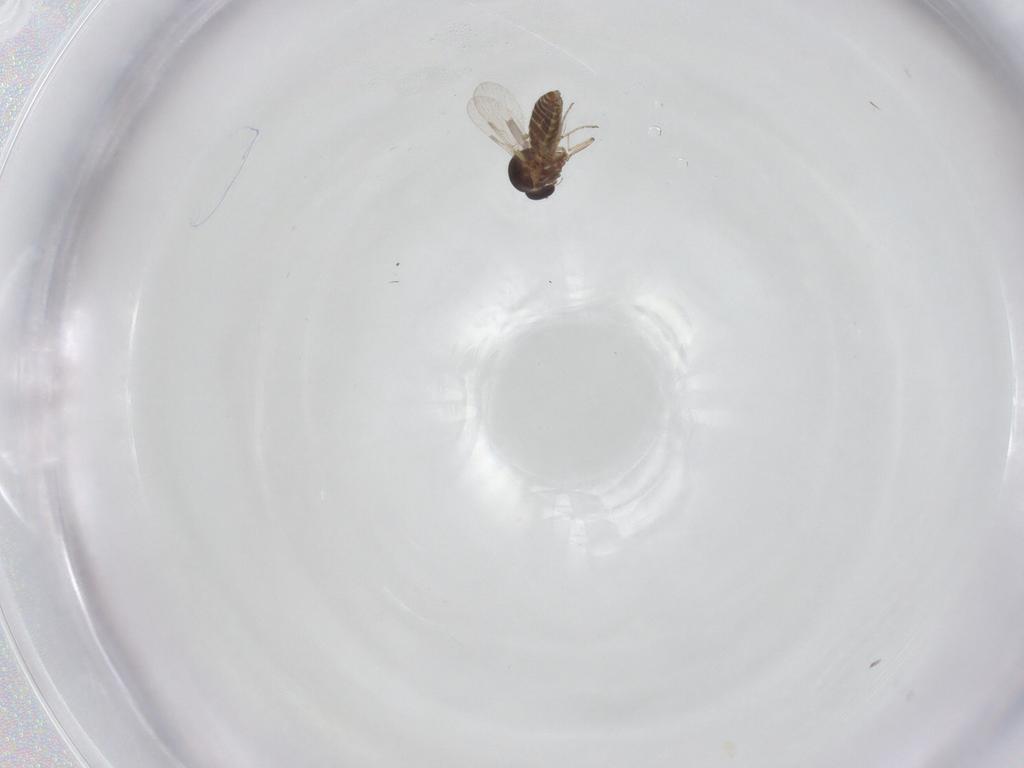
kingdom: Animalia
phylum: Arthropoda
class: Insecta
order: Diptera
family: Ceratopogonidae
